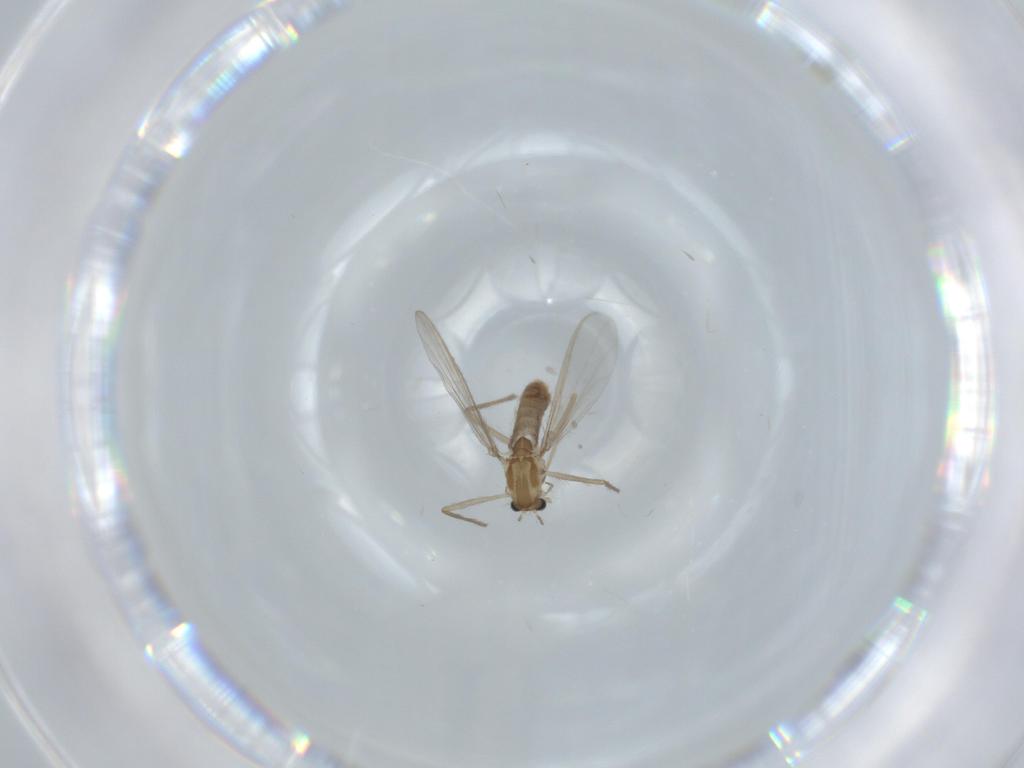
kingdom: Animalia
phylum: Arthropoda
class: Insecta
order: Diptera
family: Chironomidae
